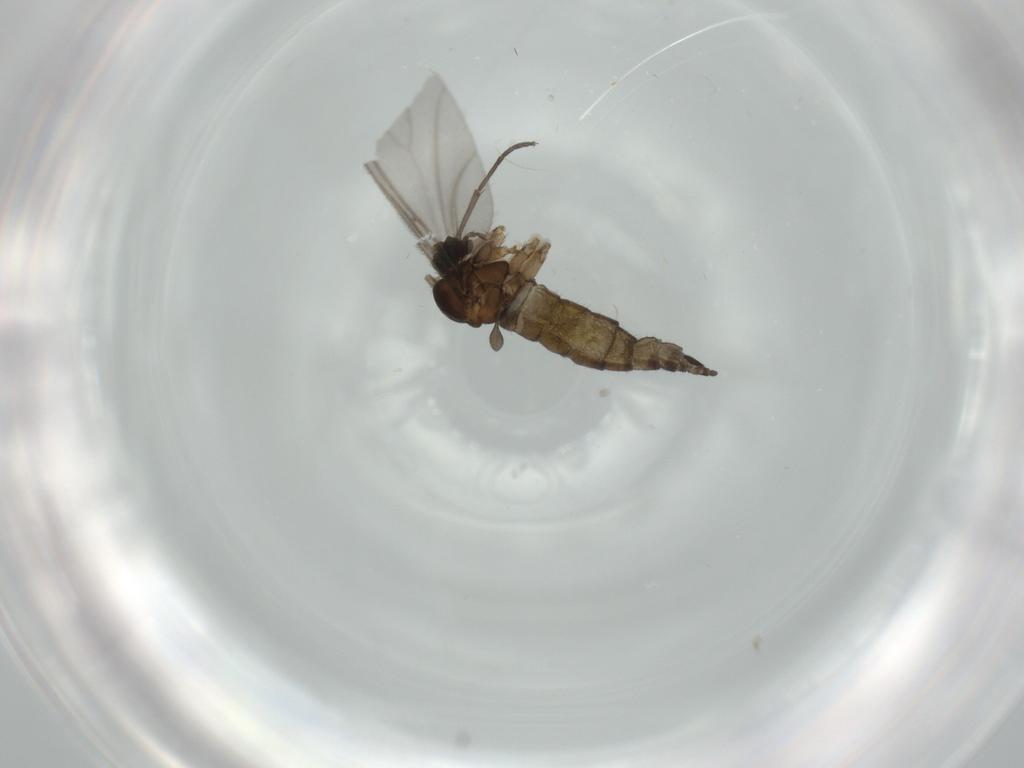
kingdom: Animalia
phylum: Arthropoda
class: Insecta
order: Diptera
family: Sciaridae
